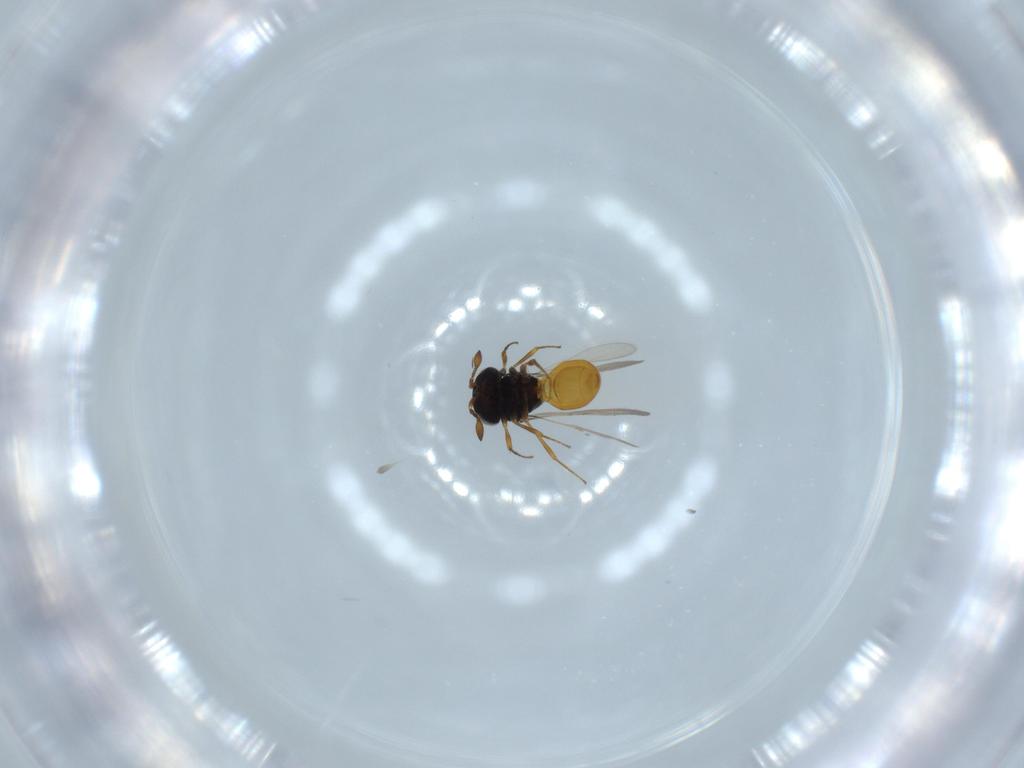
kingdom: Animalia
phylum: Arthropoda
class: Insecta
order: Hymenoptera
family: Scelionidae
